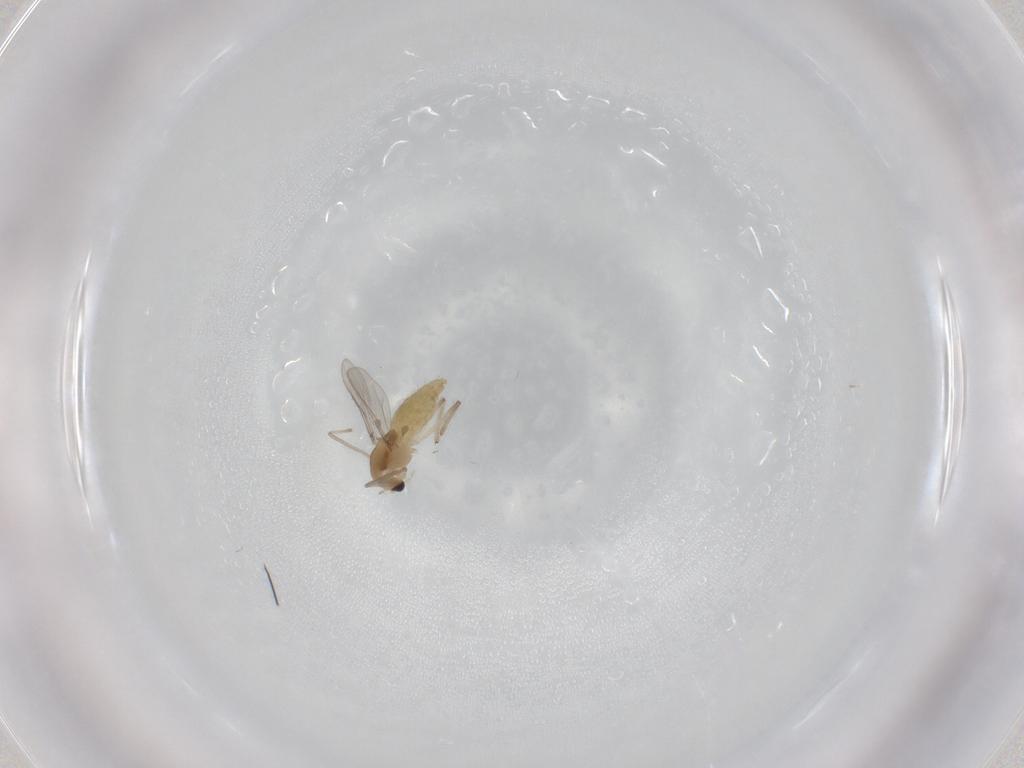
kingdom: Animalia
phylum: Arthropoda
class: Insecta
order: Diptera
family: Chironomidae
